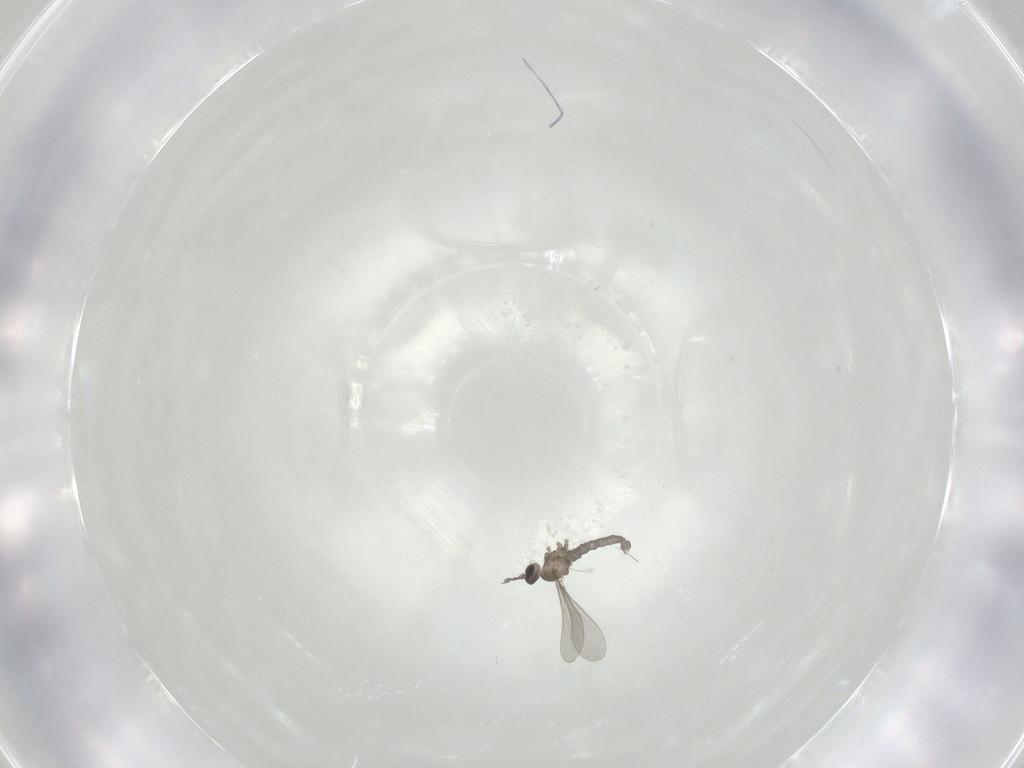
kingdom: Animalia
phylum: Arthropoda
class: Insecta
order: Diptera
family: Cecidomyiidae
